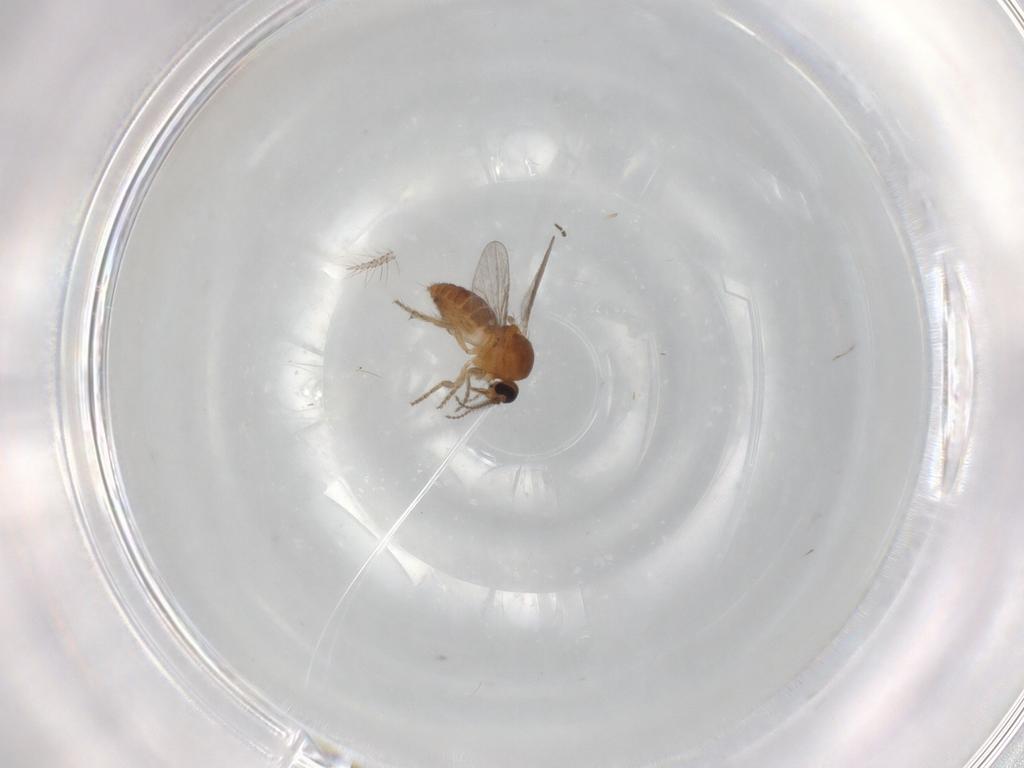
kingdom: Animalia
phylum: Arthropoda
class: Insecta
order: Diptera
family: Ceratopogonidae
